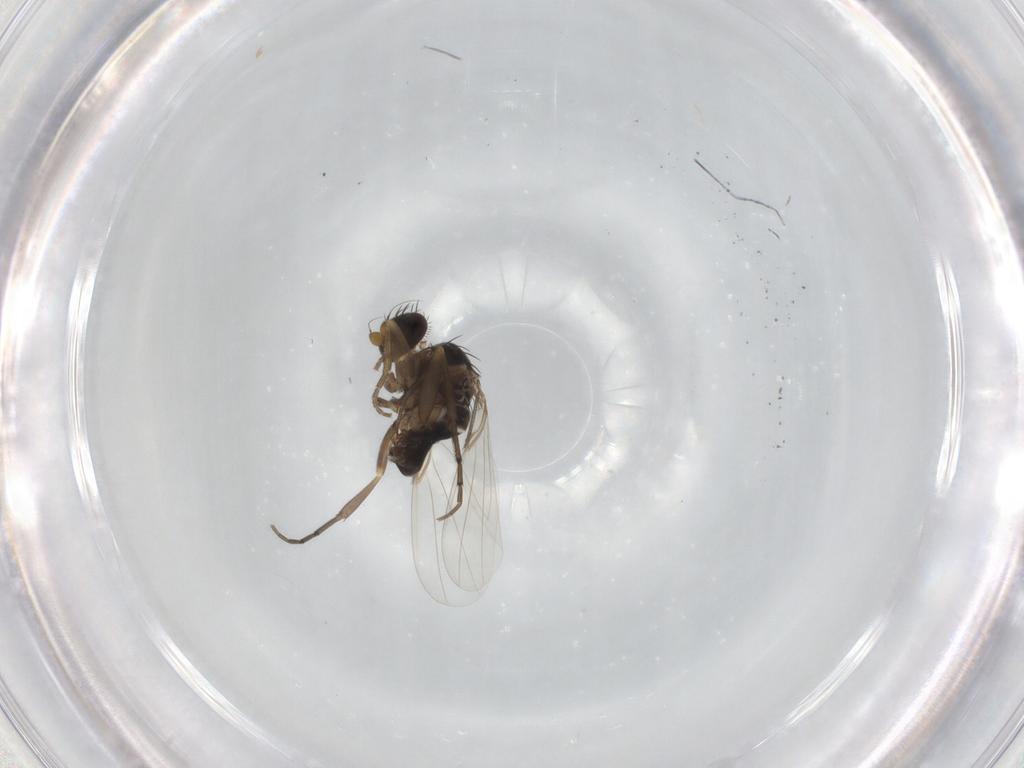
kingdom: Animalia
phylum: Arthropoda
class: Insecta
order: Diptera
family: Phoridae
